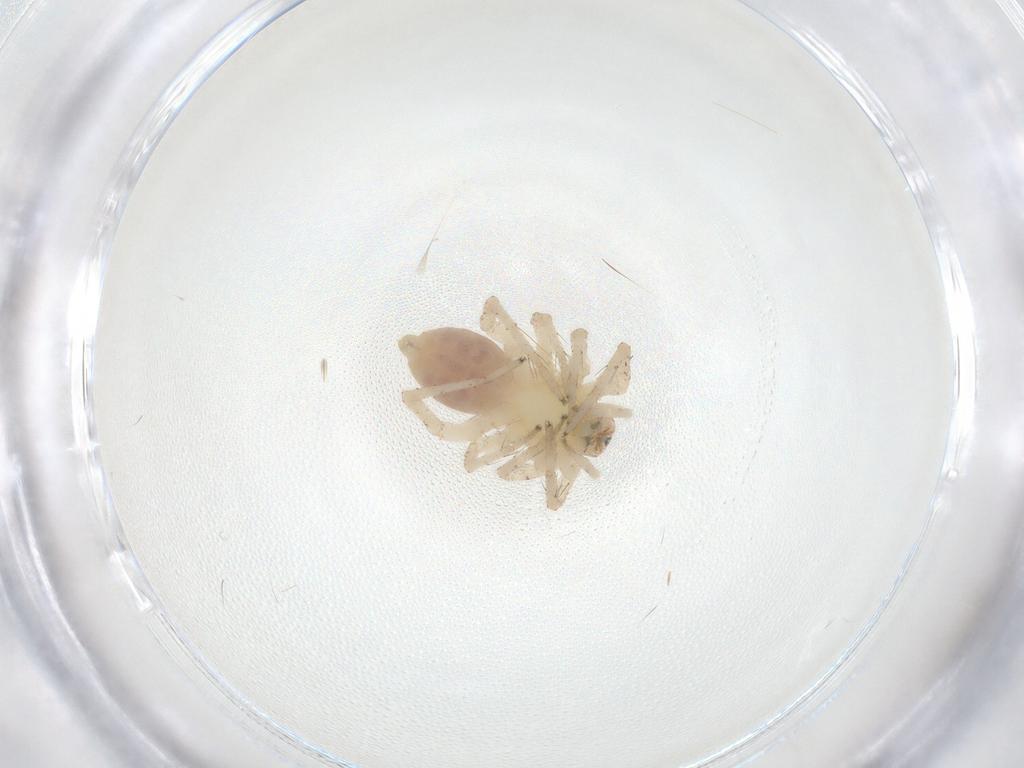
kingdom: Animalia
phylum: Arthropoda
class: Arachnida
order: Araneae
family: Anyphaenidae
